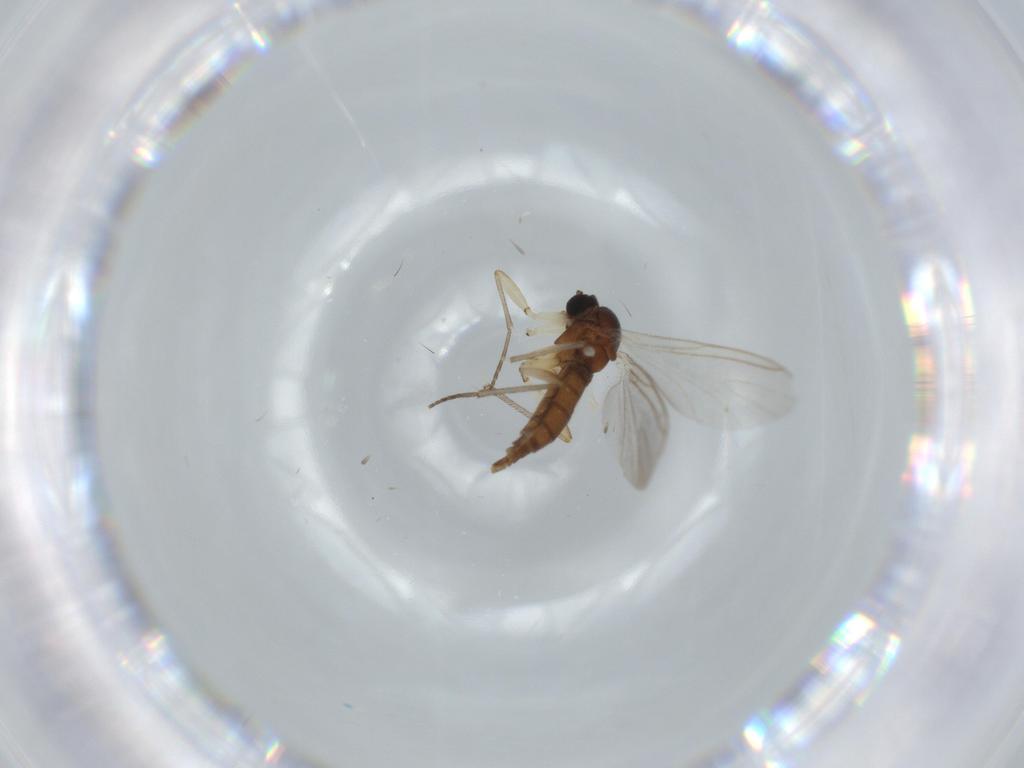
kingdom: Animalia
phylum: Arthropoda
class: Insecta
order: Diptera
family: Sciaridae
